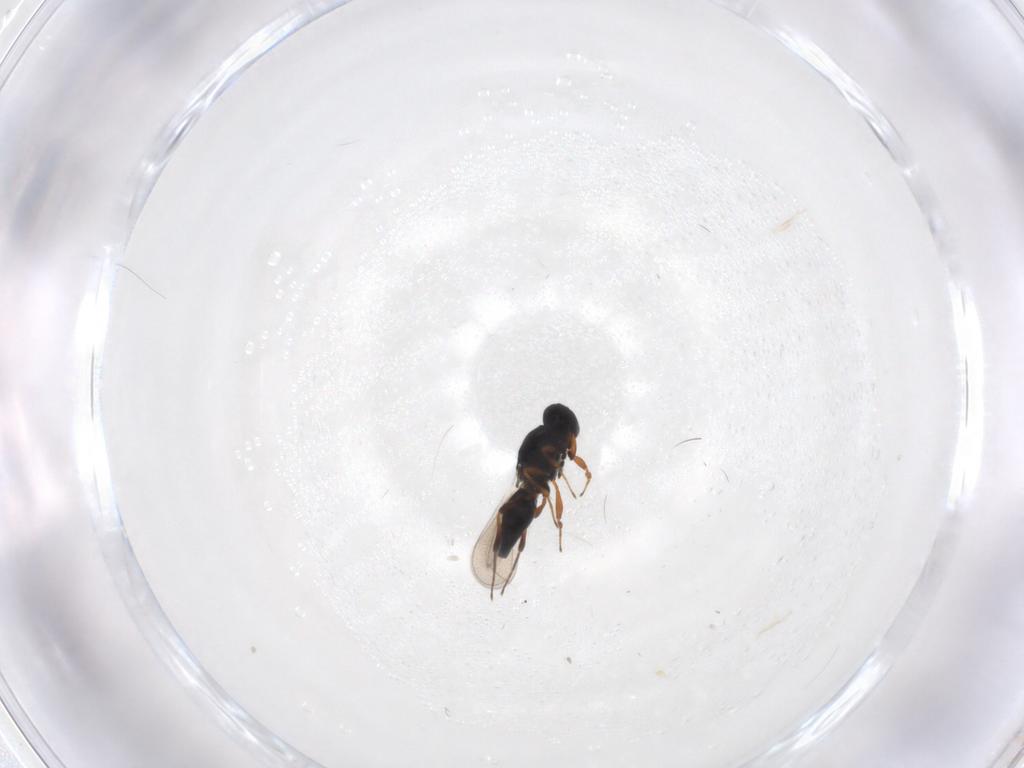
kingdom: Animalia
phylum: Arthropoda
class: Insecta
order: Hymenoptera
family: Platygastridae
